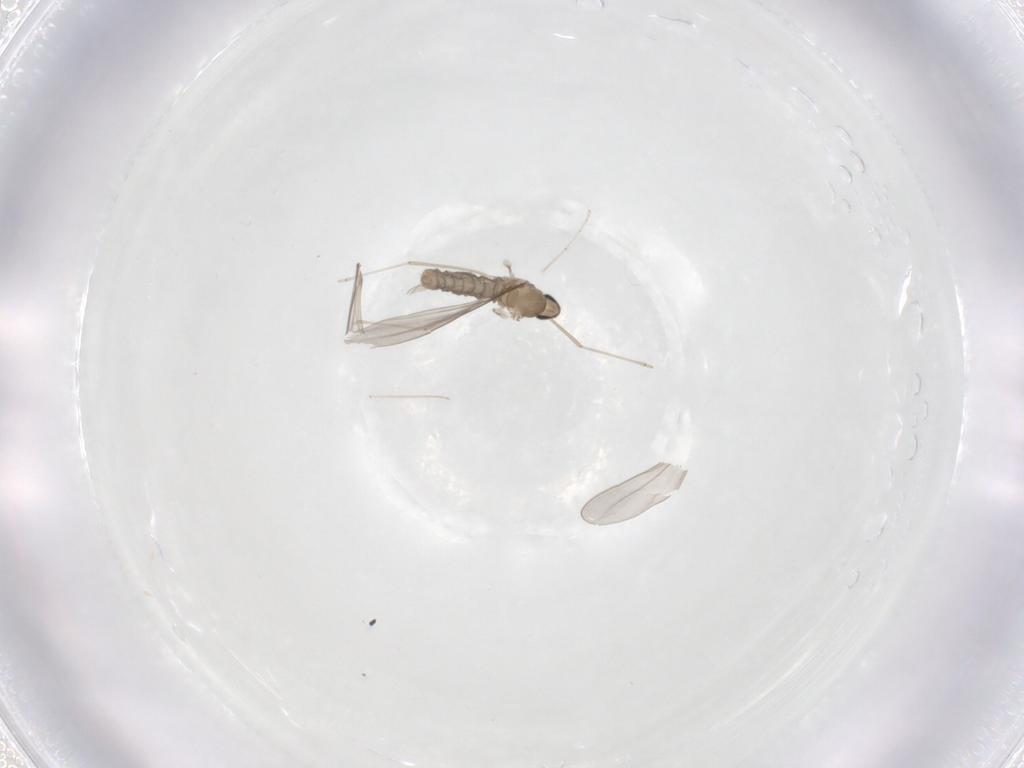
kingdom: Animalia
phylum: Arthropoda
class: Insecta
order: Diptera
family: Cecidomyiidae
